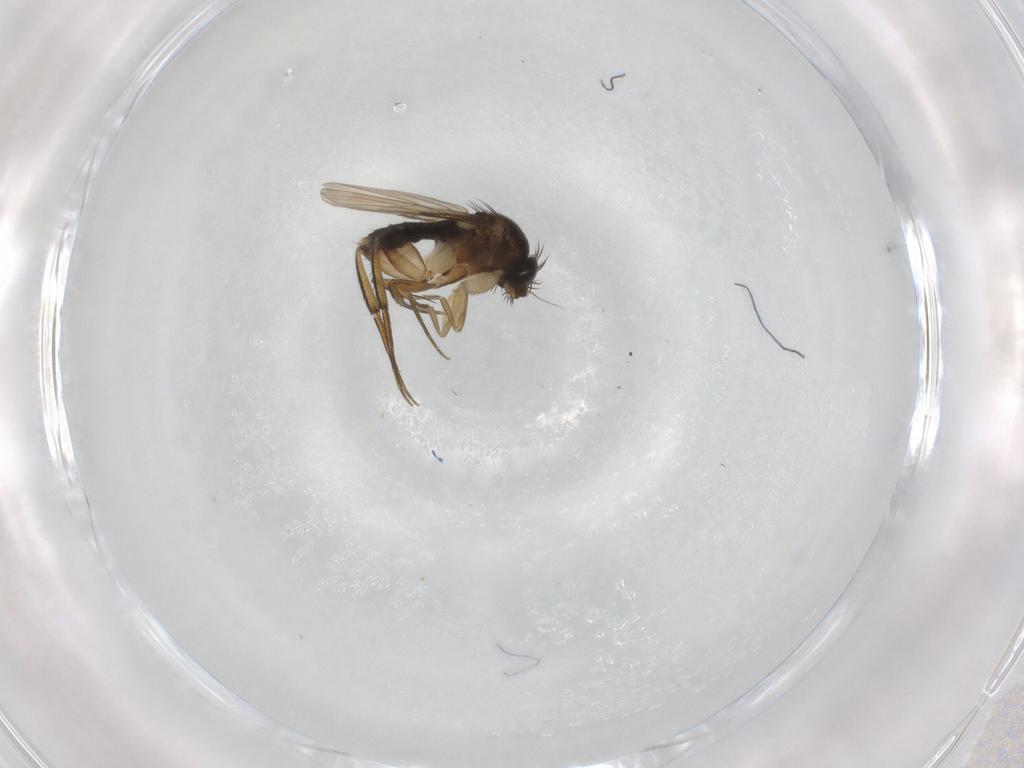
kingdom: Animalia
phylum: Arthropoda
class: Insecta
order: Diptera
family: Phoridae
